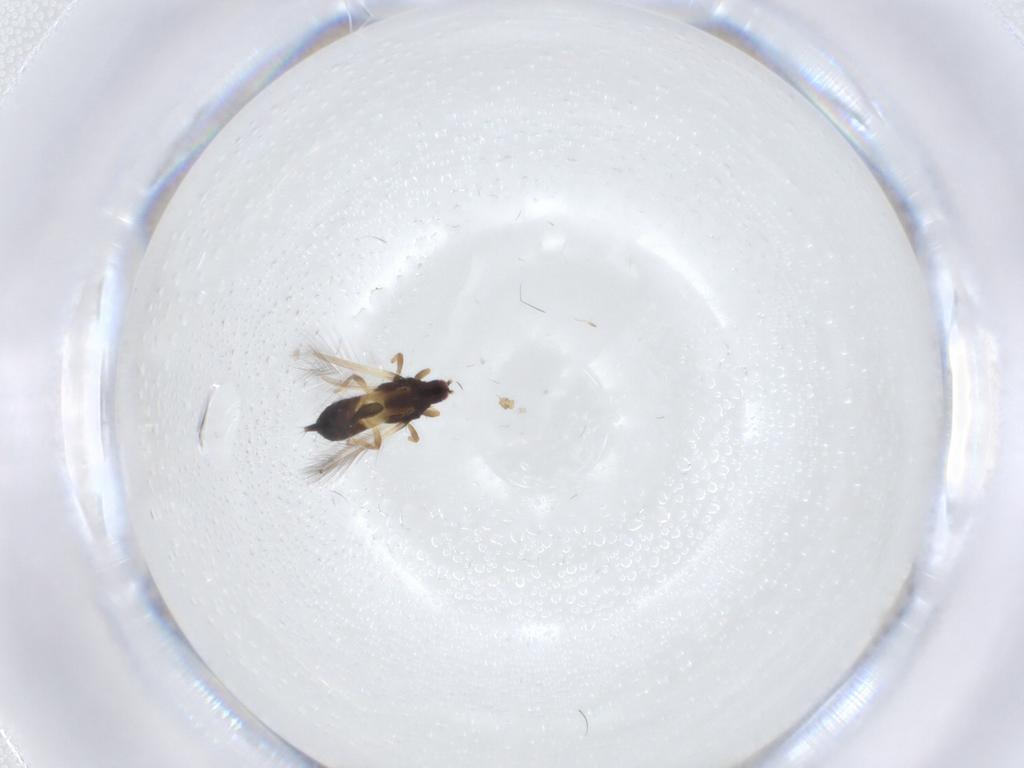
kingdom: Animalia
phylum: Arthropoda
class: Insecta
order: Thysanoptera
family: Phlaeothripidae
